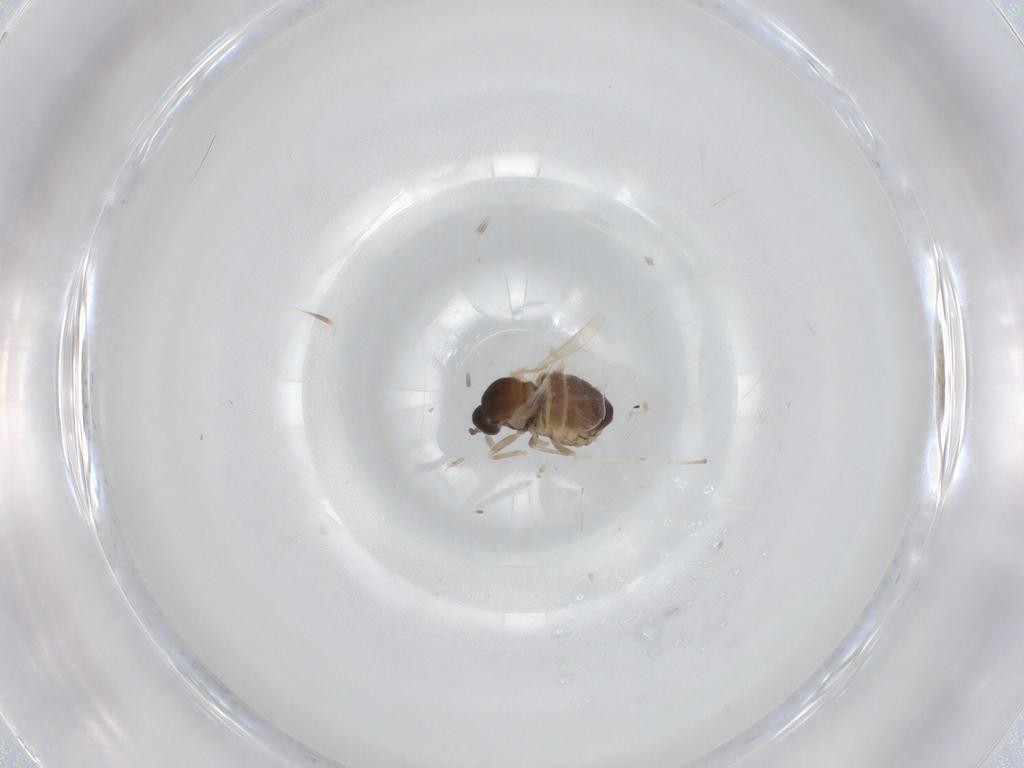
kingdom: Animalia
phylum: Arthropoda
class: Insecta
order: Diptera
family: Cecidomyiidae
